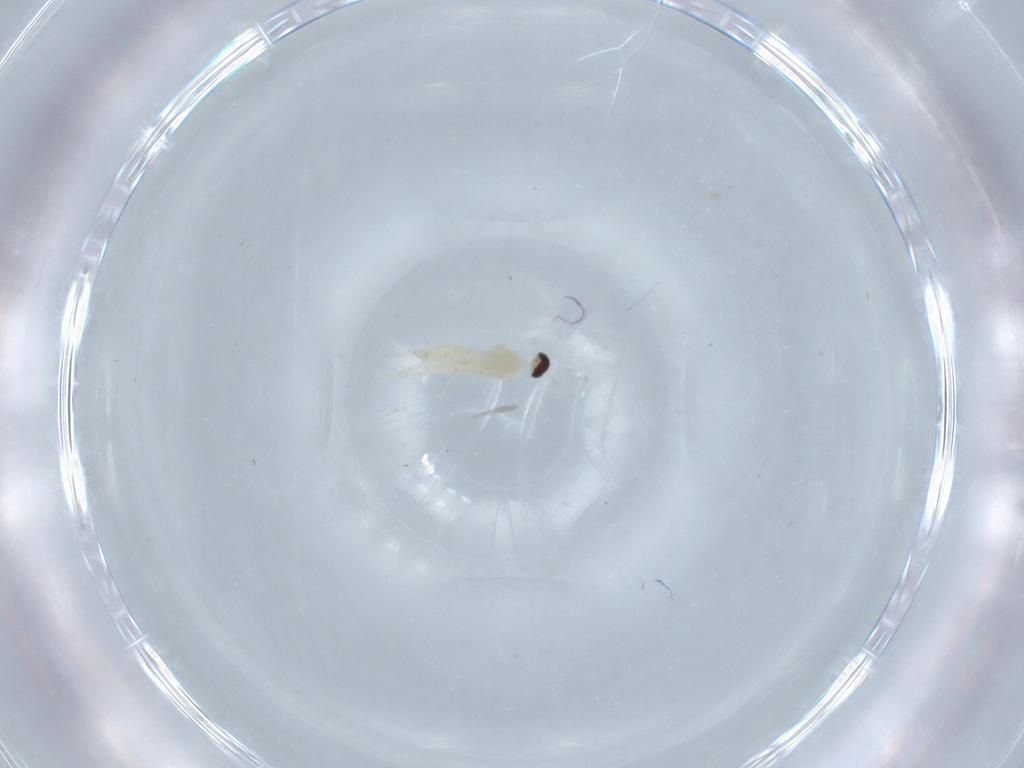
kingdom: Animalia
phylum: Arthropoda
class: Insecta
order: Diptera
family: Cecidomyiidae
